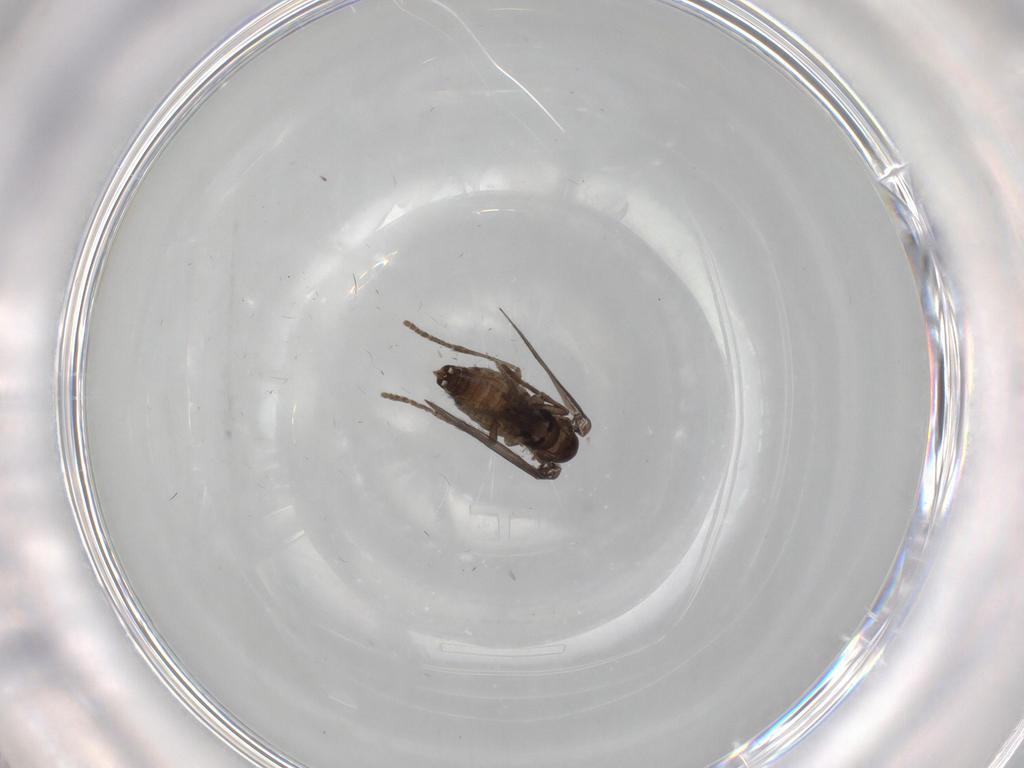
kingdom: Animalia
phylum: Arthropoda
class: Insecta
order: Diptera
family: Psychodidae
